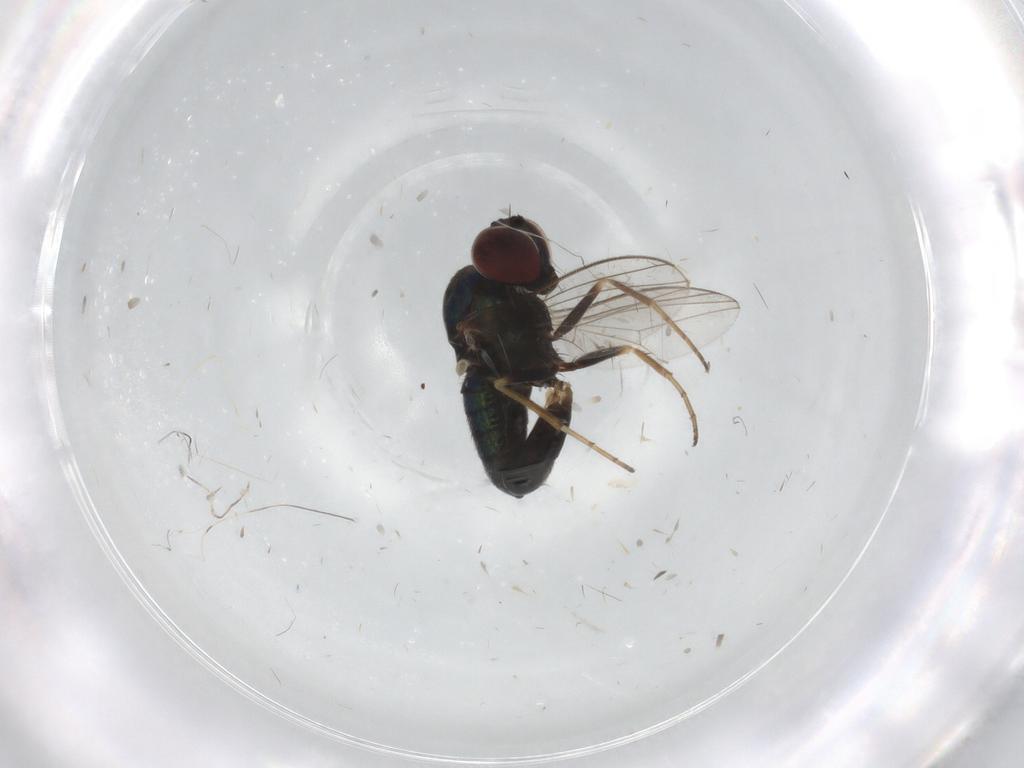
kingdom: Animalia
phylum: Arthropoda
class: Insecta
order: Diptera
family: Dolichopodidae
